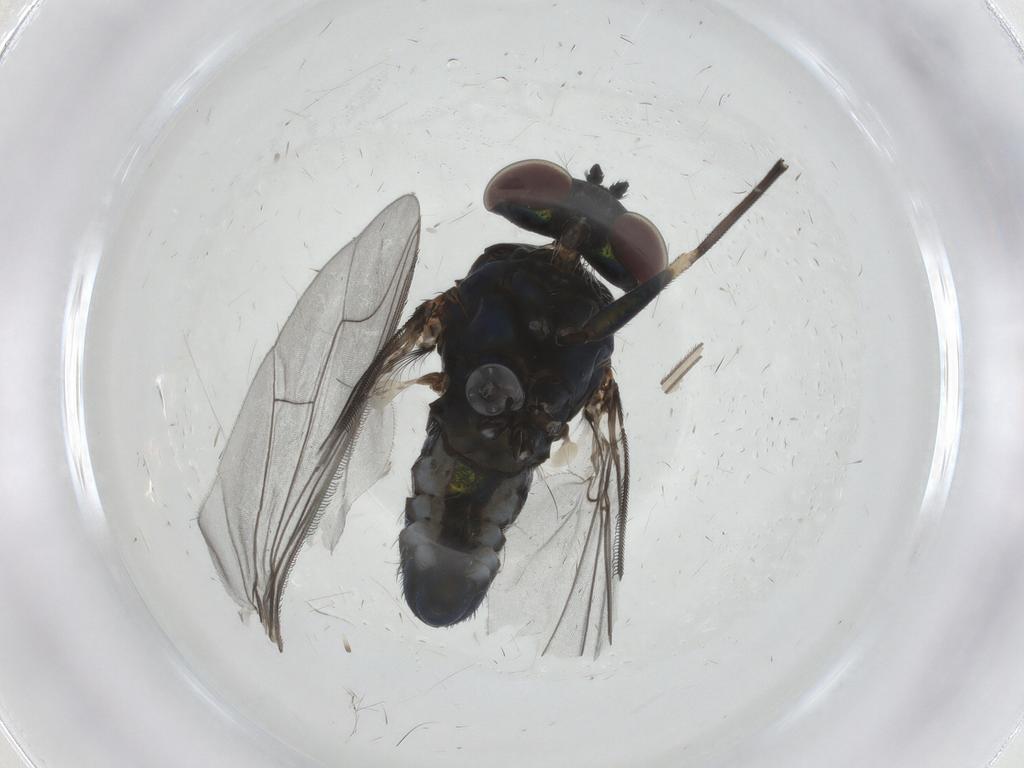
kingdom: Animalia
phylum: Arthropoda
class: Insecta
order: Diptera
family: Dolichopodidae
